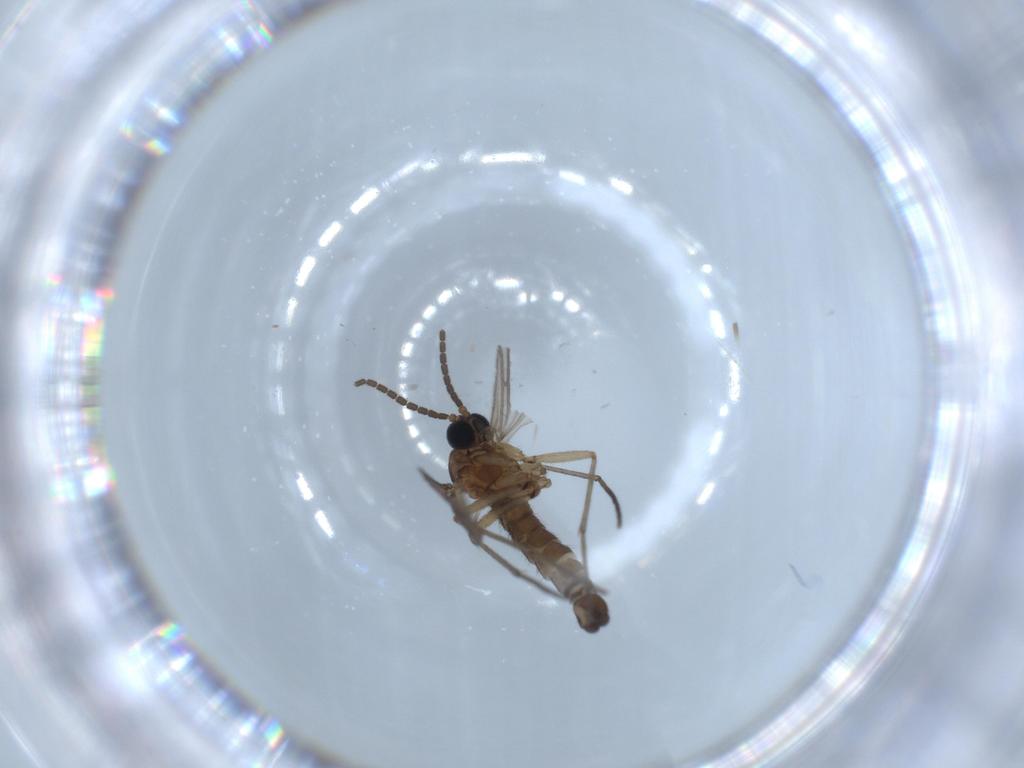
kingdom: Animalia
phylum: Arthropoda
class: Insecta
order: Diptera
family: Sciaridae
